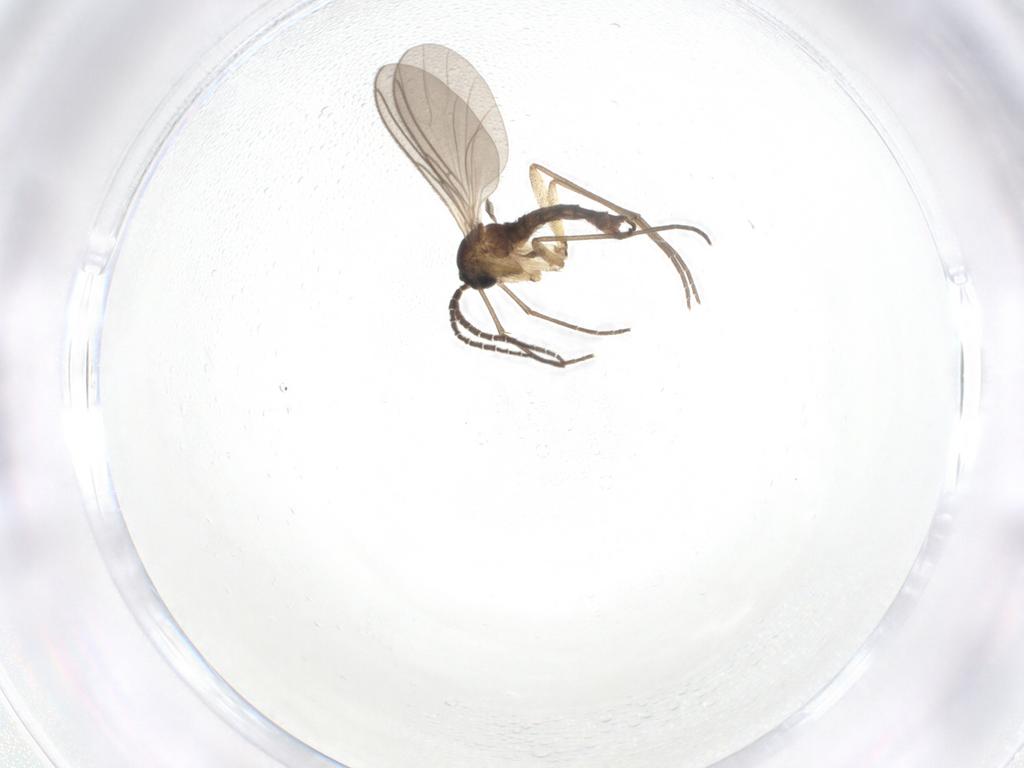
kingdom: Animalia
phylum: Arthropoda
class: Insecta
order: Diptera
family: Sciaridae
